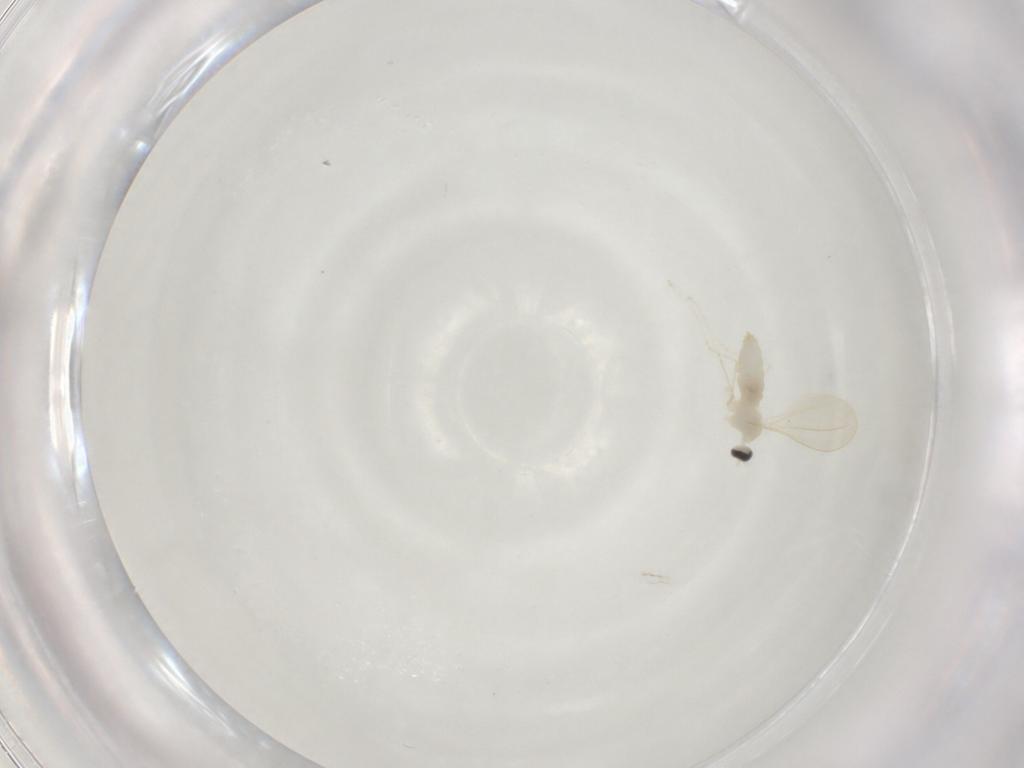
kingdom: Animalia
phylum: Arthropoda
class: Insecta
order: Diptera
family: Cecidomyiidae
